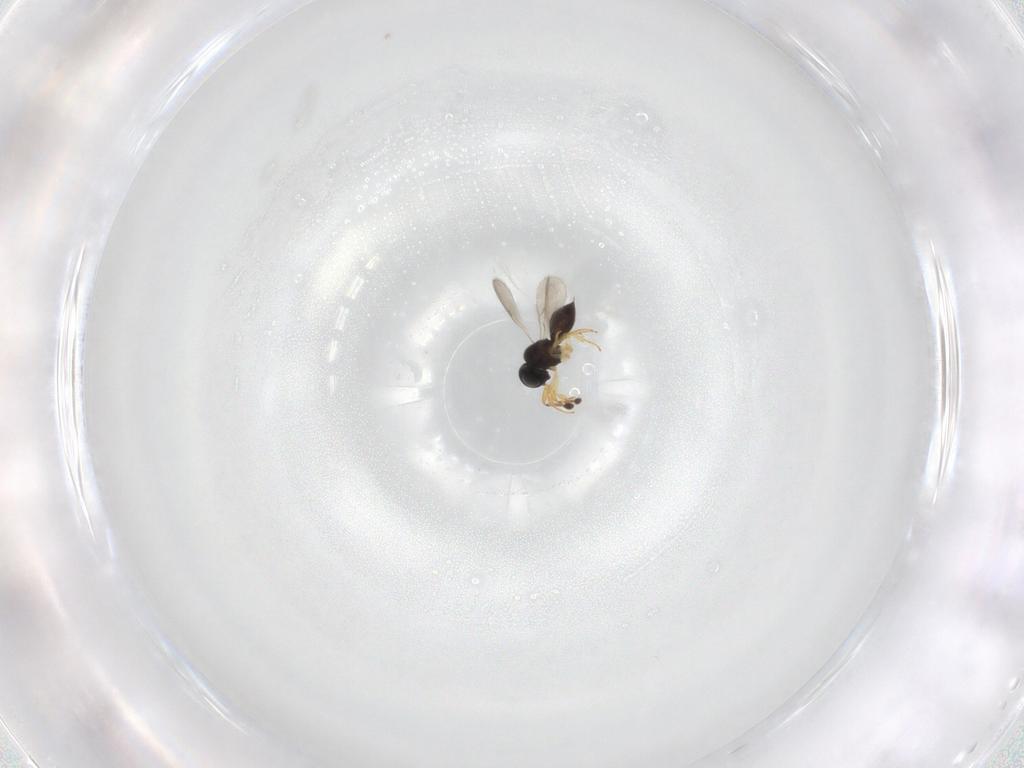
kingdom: Animalia
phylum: Arthropoda
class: Insecta
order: Hymenoptera
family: Scelionidae
